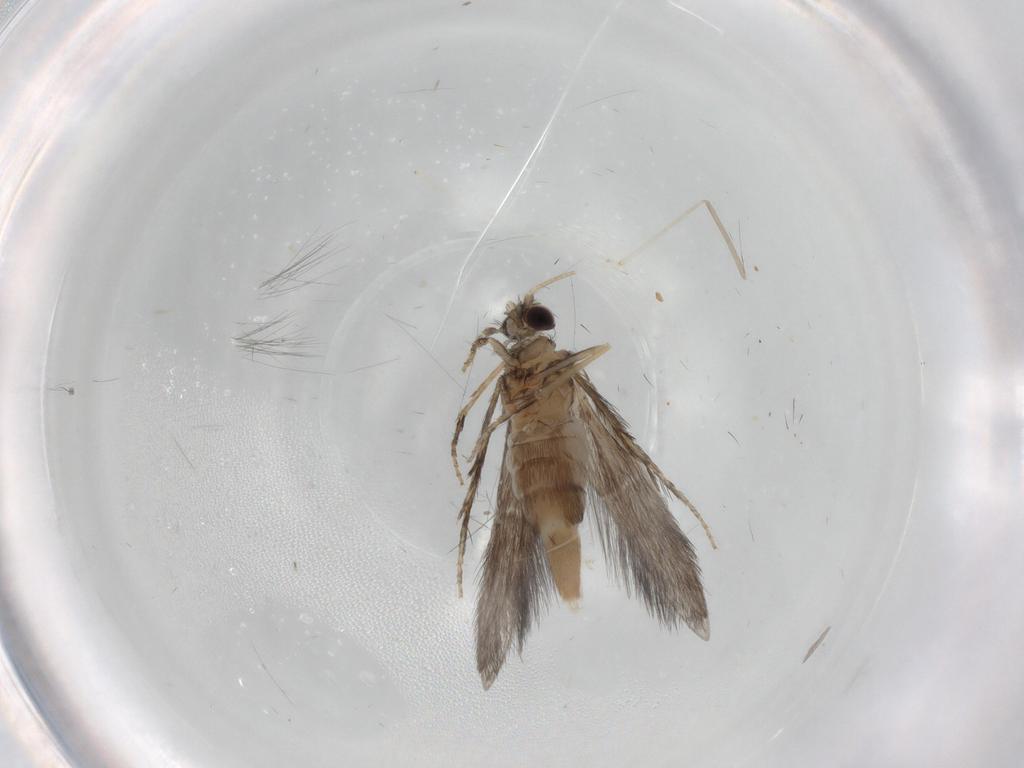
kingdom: Animalia
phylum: Arthropoda
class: Insecta
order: Trichoptera
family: Hydroptilidae
